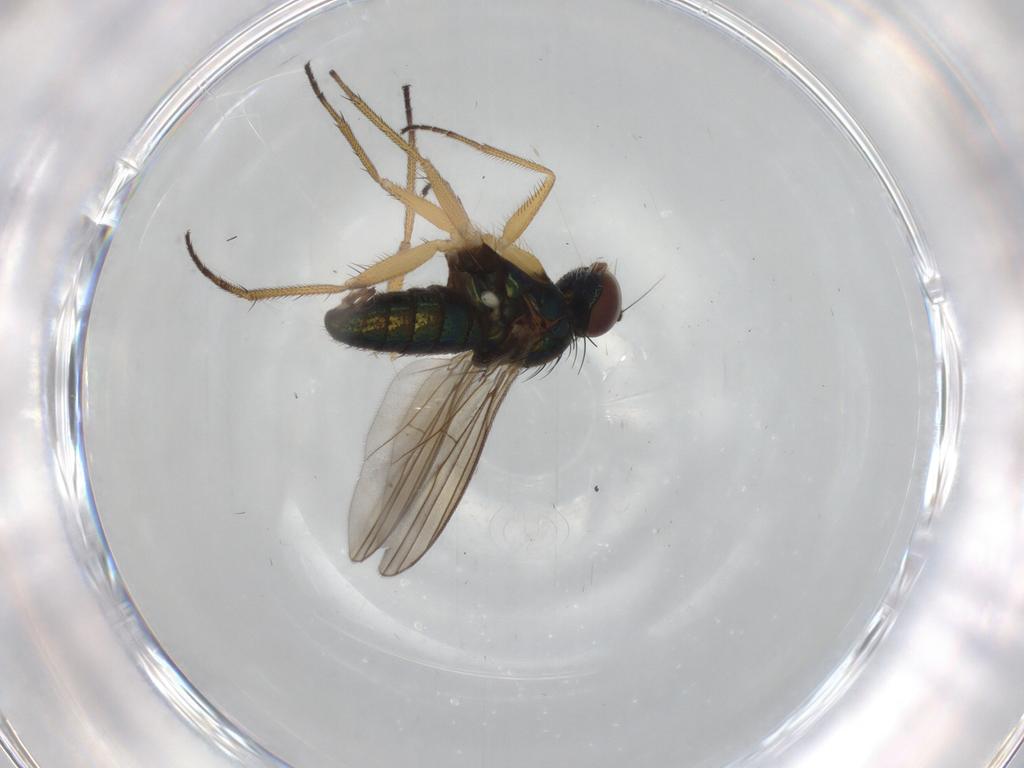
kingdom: Animalia
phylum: Arthropoda
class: Insecta
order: Diptera
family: Dolichopodidae
